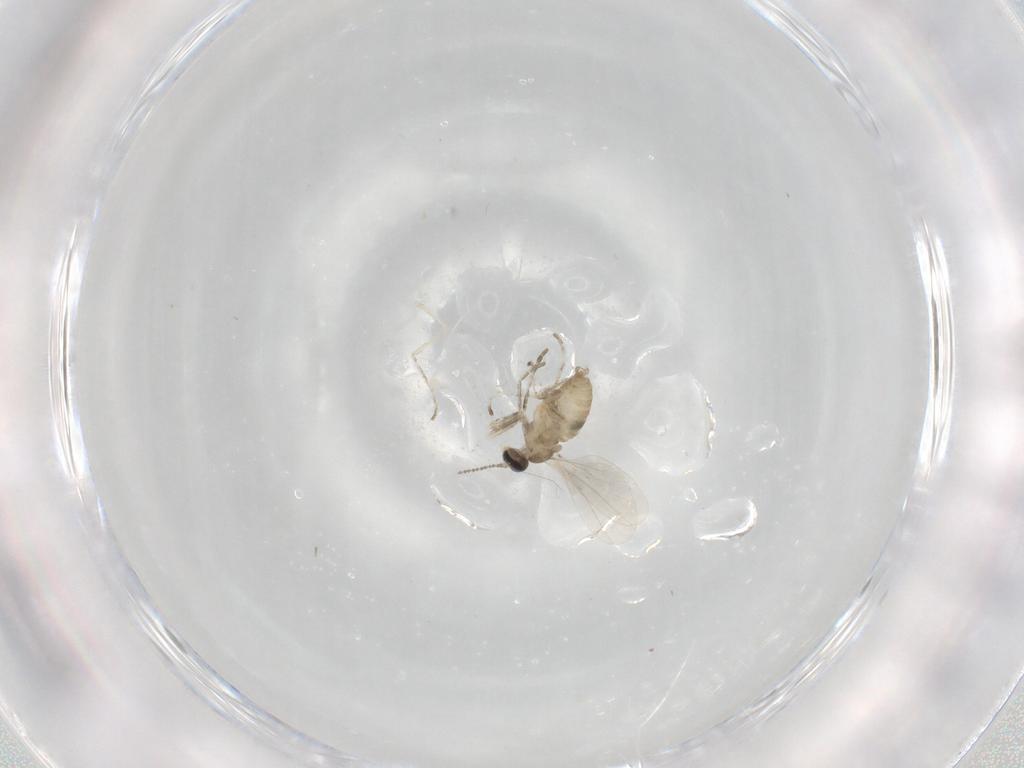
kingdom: Animalia
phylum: Arthropoda
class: Insecta
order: Diptera
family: Cecidomyiidae
